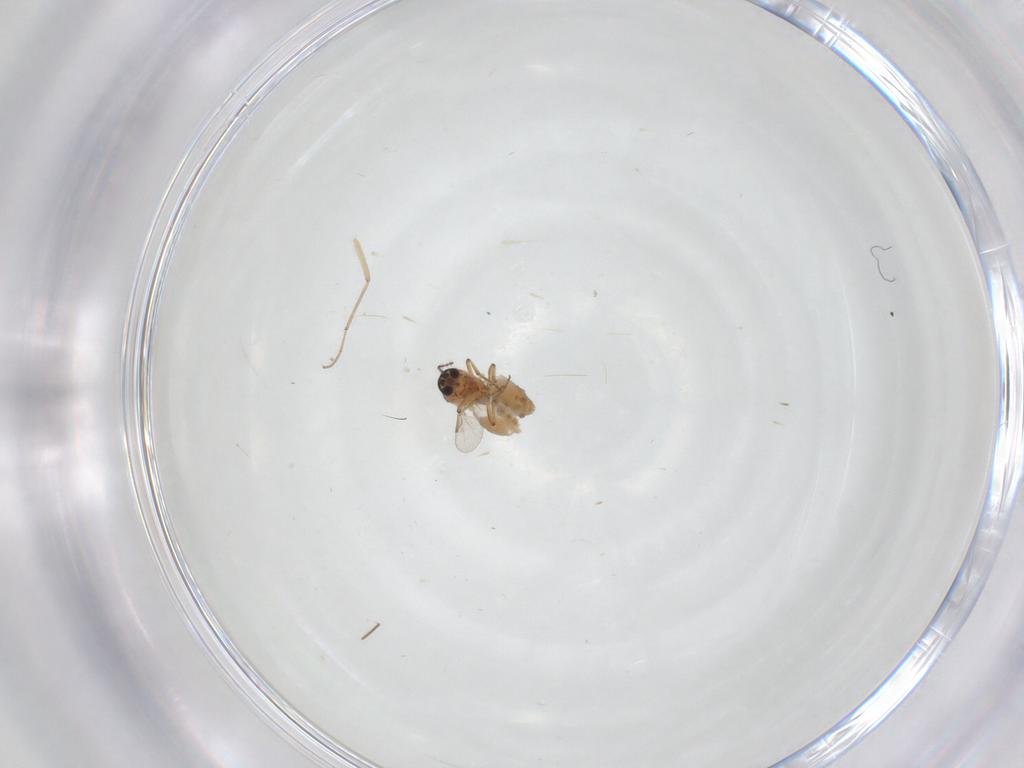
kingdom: Animalia
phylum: Arthropoda
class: Insecta
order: Diptera
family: Ceratopogonidae
